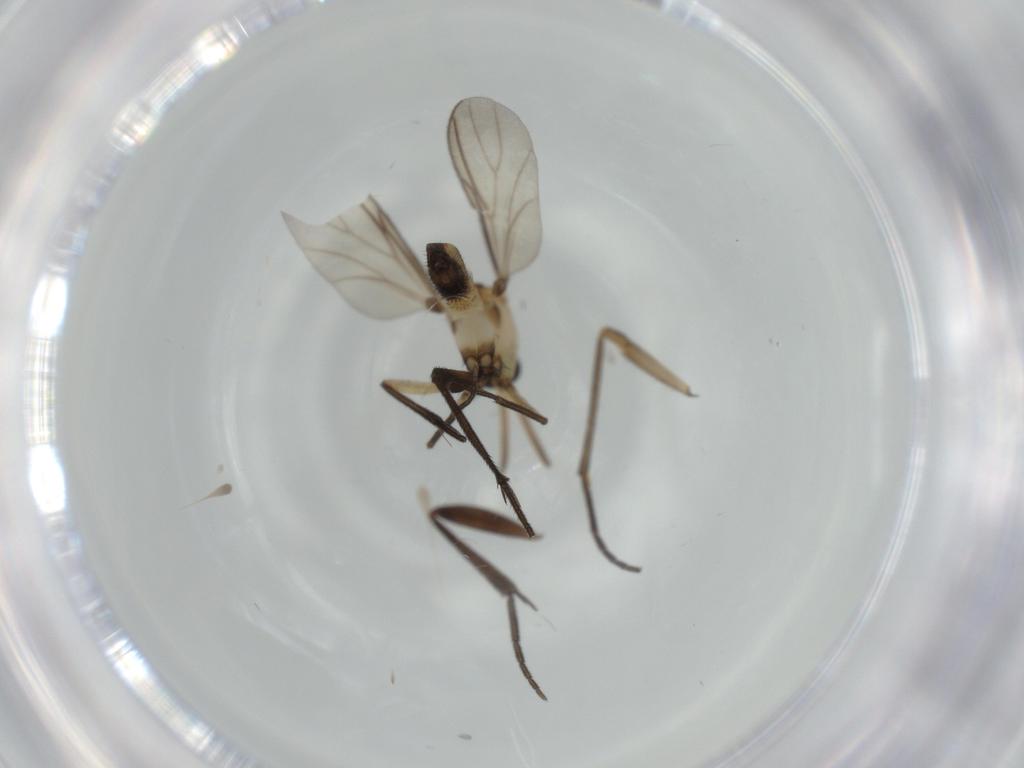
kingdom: Animalia
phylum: Arthropoda
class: Insecta
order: Diptera
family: Sciaridae
